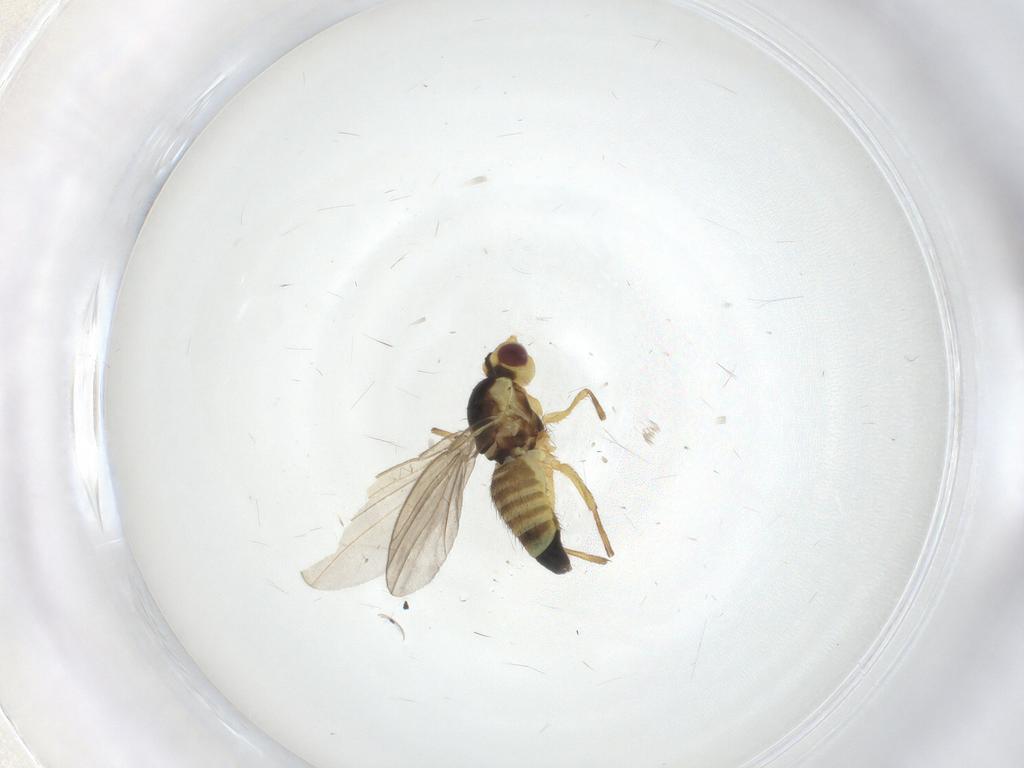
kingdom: Animalia
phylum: Arthropoda
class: Insecta
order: Diptera
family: Agromyzidae
